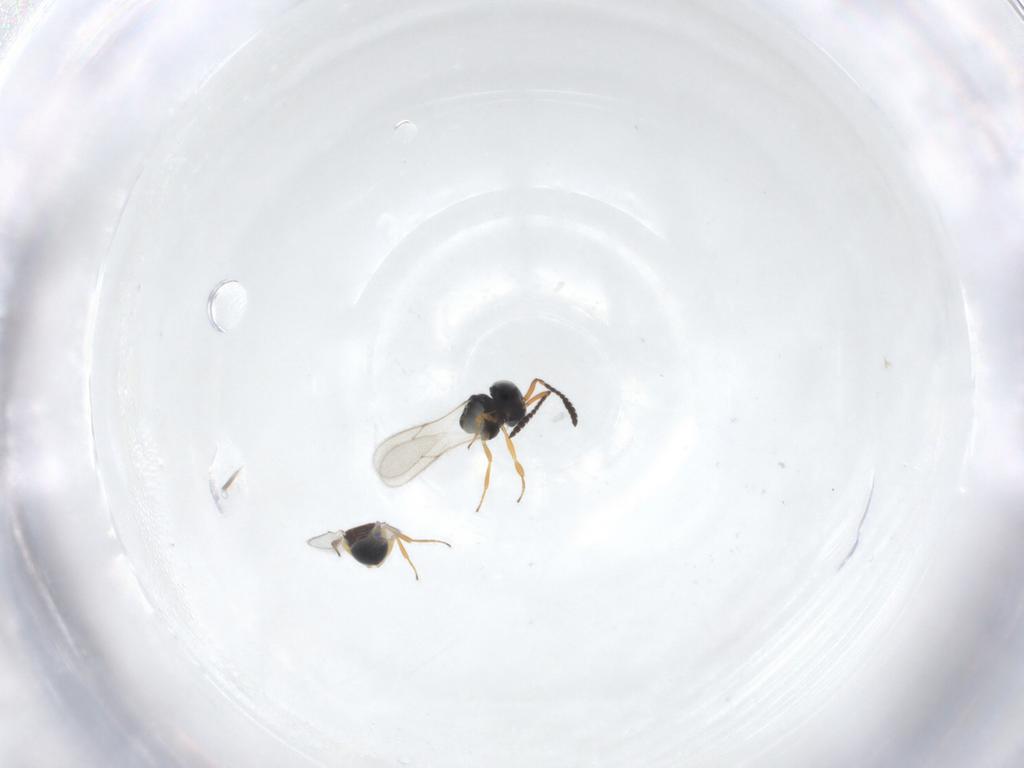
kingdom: Animalia
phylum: Arthropoda
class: Insecta
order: Hymenoptera
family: Scelionidae
